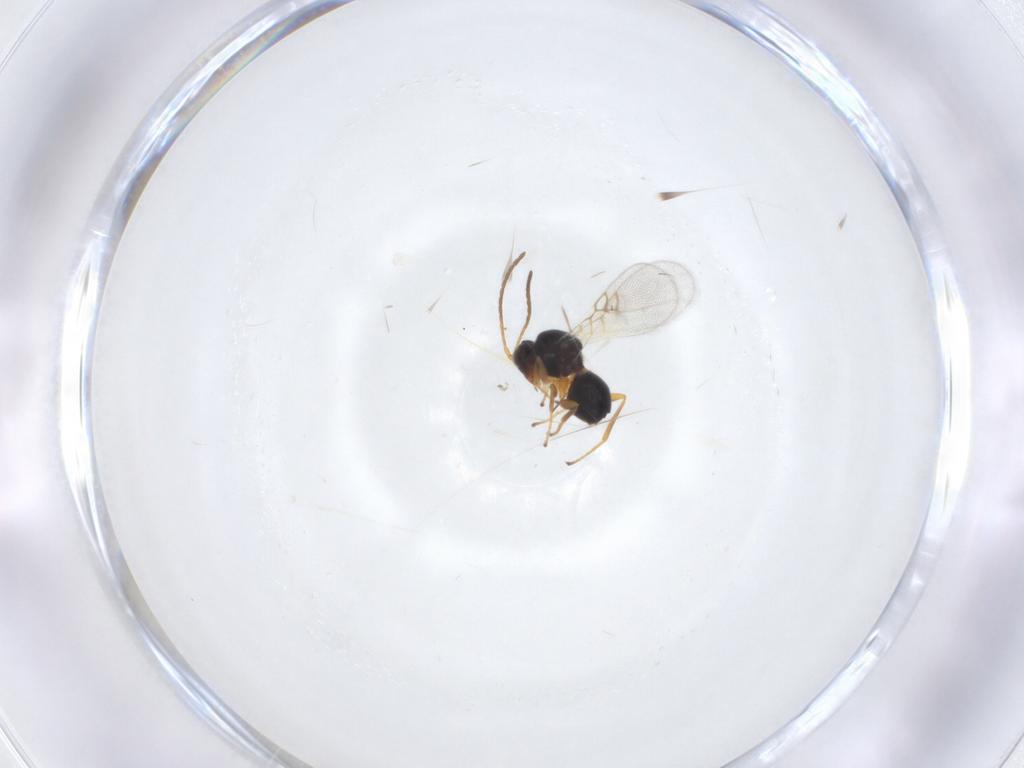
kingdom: Animalia
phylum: Arthropoda
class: Insecta
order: Hymenoptera
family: Figitidae
